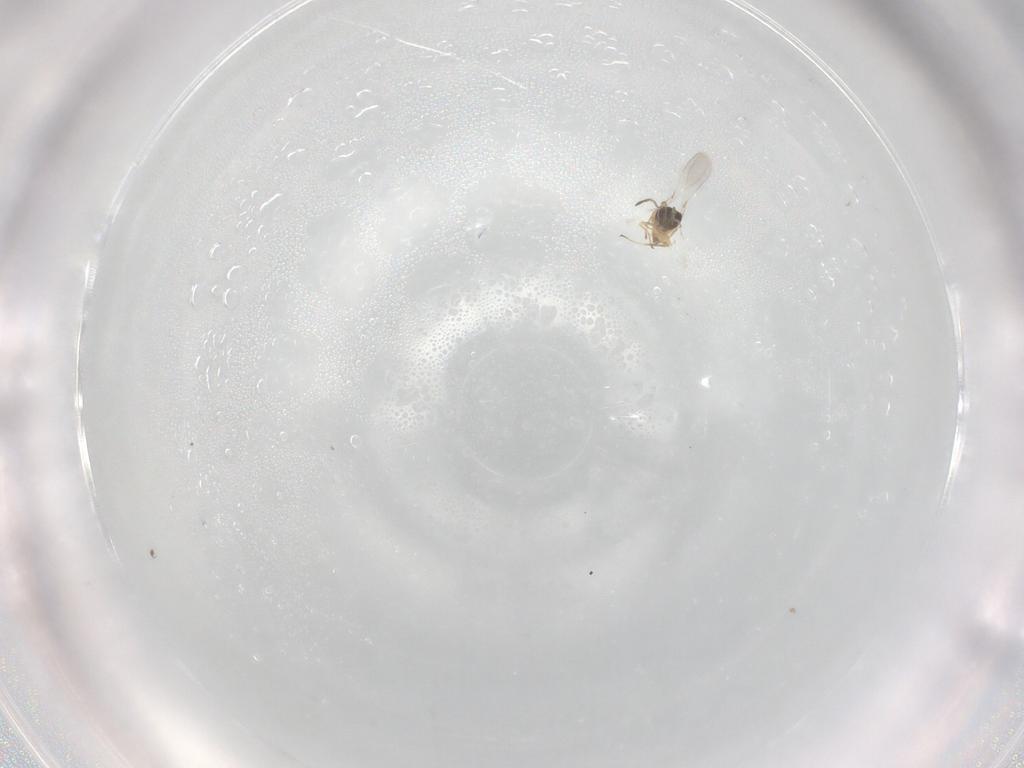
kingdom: Animalia
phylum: Arthropoda
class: Insecta
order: Hymenoptera
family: Mymaridae
